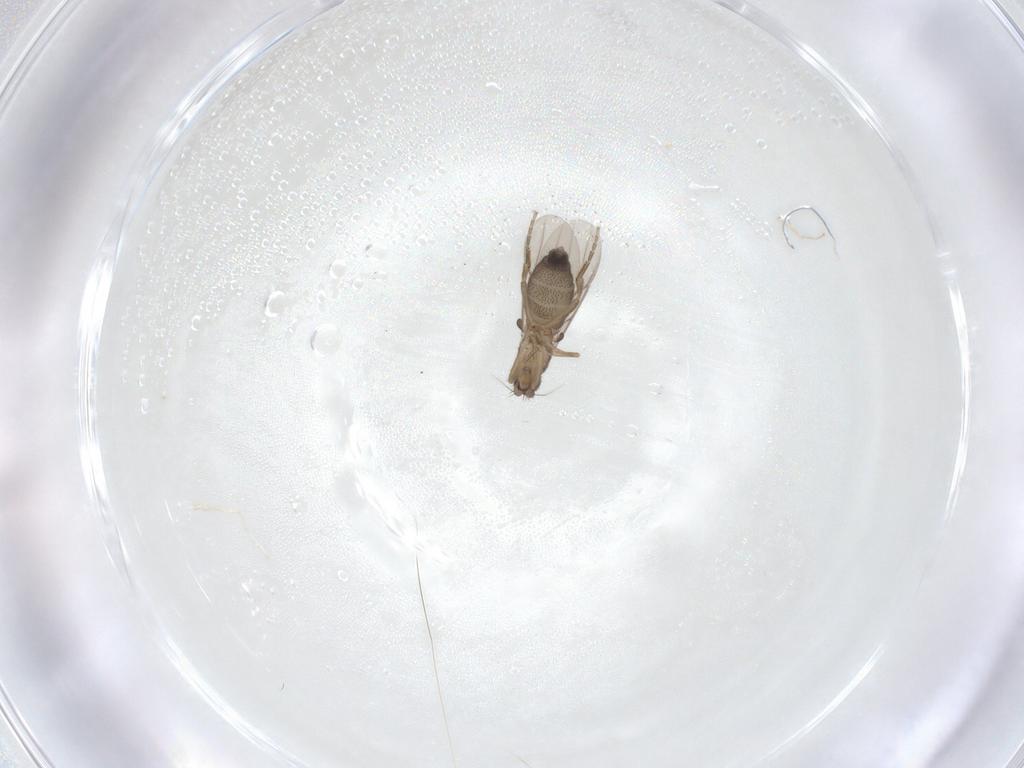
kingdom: Animalia
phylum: Arthropoda
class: Insecta
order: Diptera
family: Phoridae
